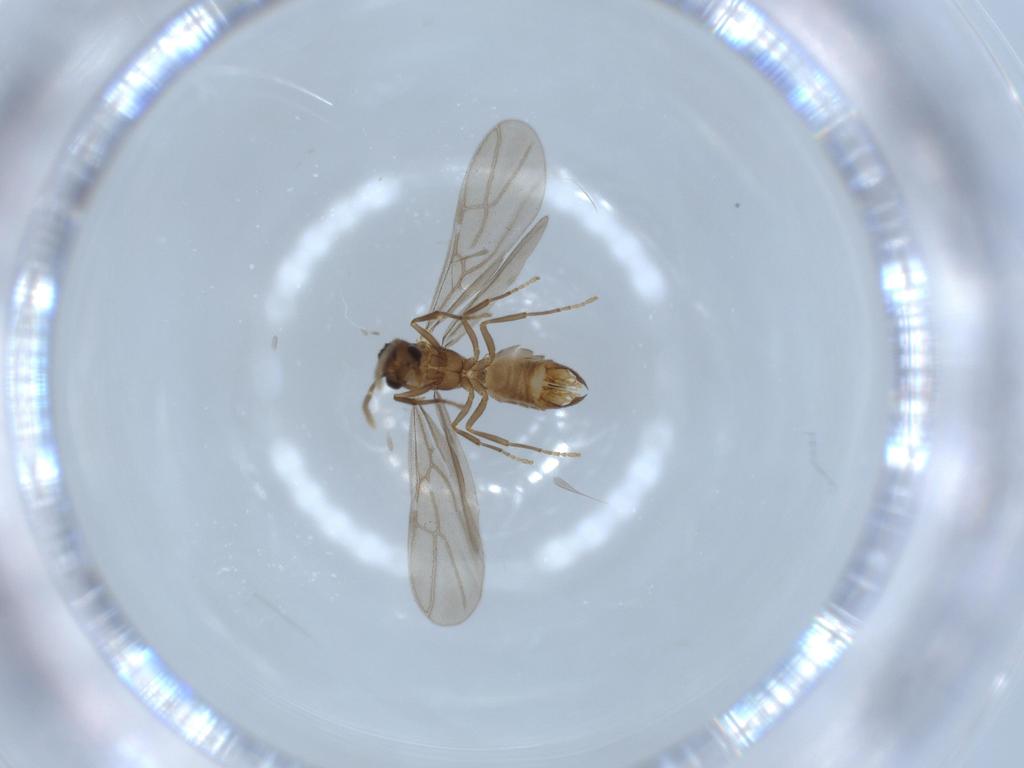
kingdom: Animalia
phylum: Arthropoda
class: Insecta
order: Hymenoptera
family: Formicidae
